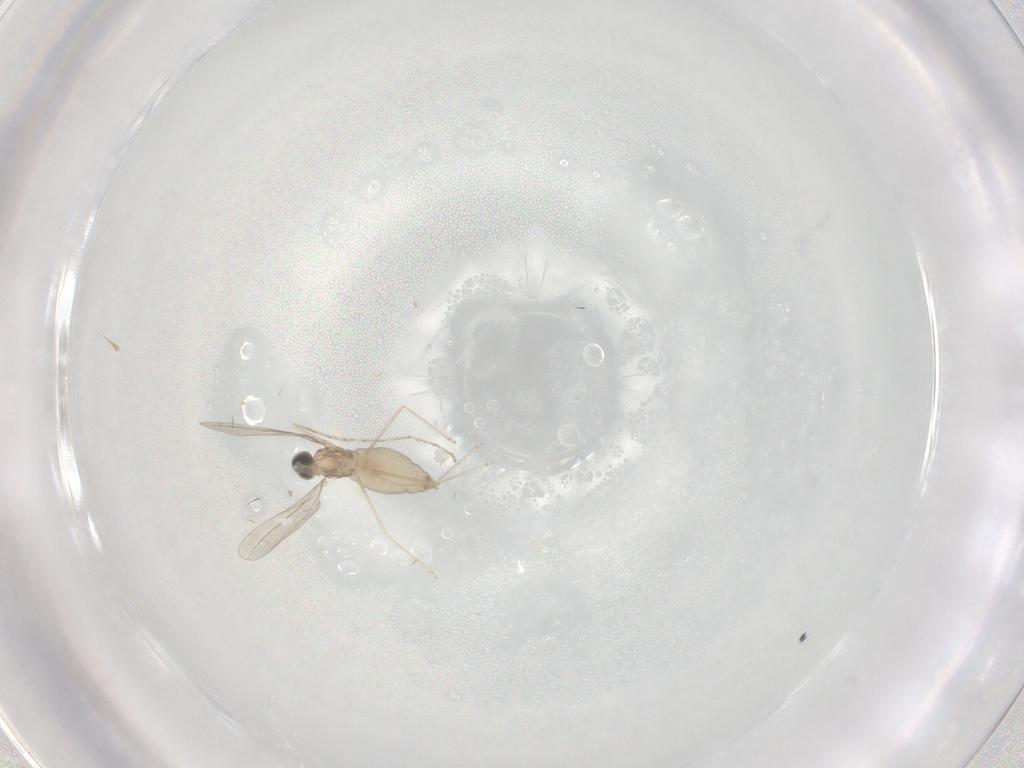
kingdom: Animalia
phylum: Arthropoda
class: Insecta
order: Diptera
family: Cecidomyiidae
